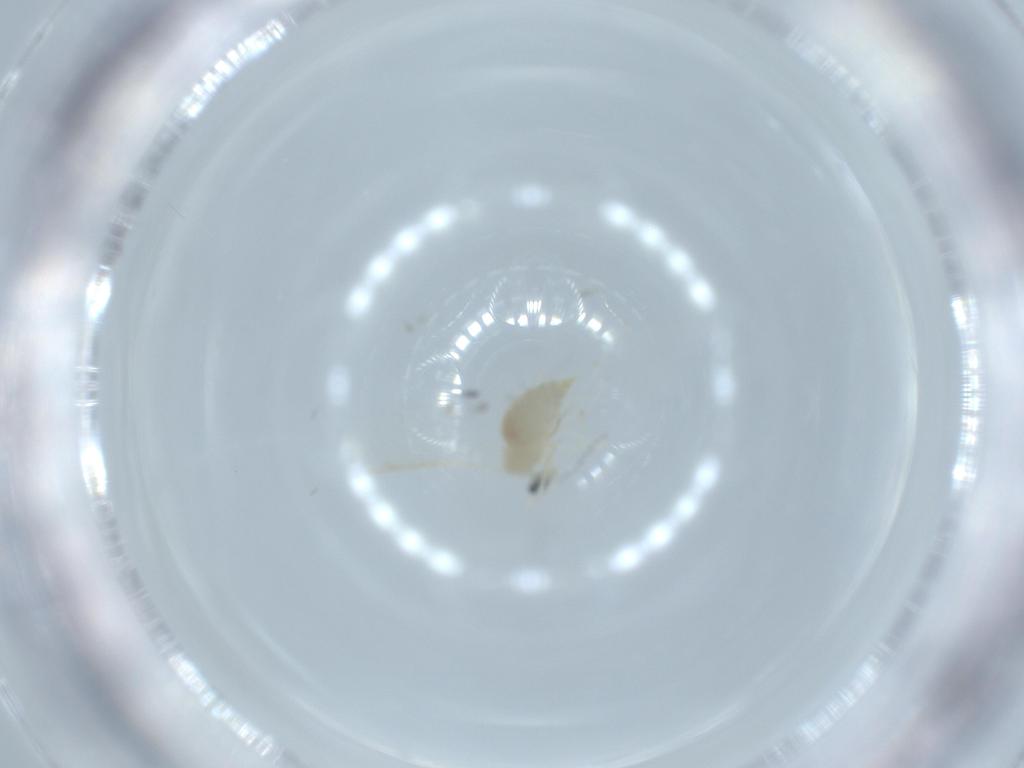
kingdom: Animalia
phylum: Arthropoda
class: Insecta
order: Diptera
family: Cecidomyiidae
